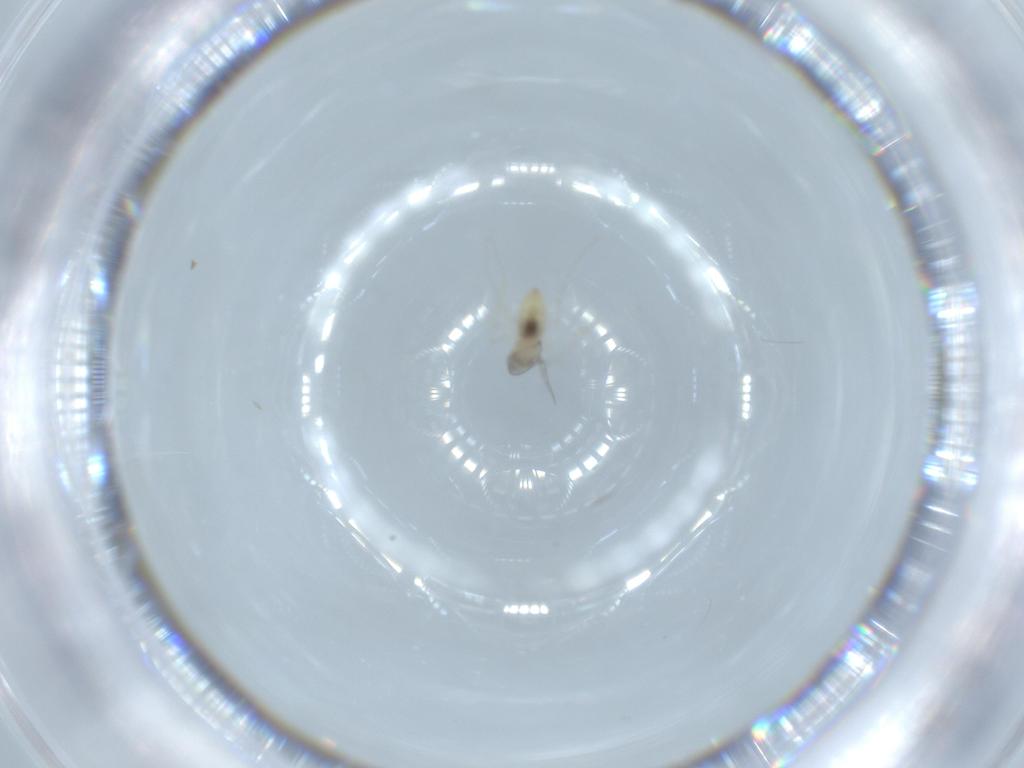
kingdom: Animalia
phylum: Arthropoda
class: Insecta
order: Diptera
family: Cecidomyiidae
